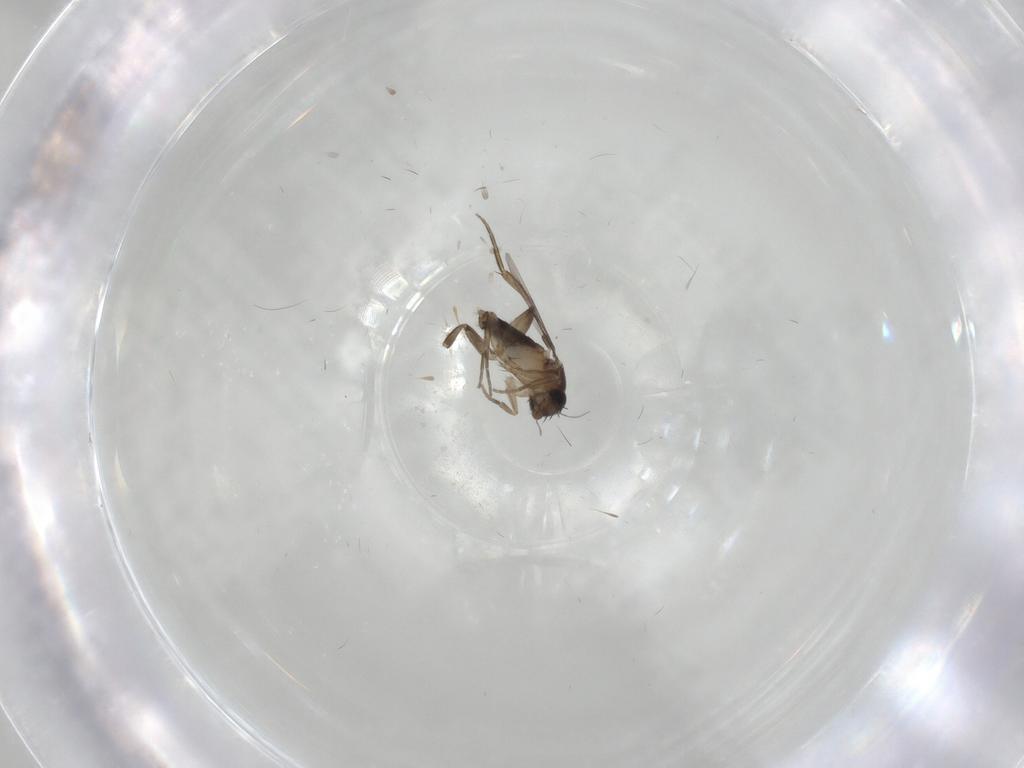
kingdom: Animalia
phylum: Arthropoda
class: Insecta
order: Diptera
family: Phoridae
